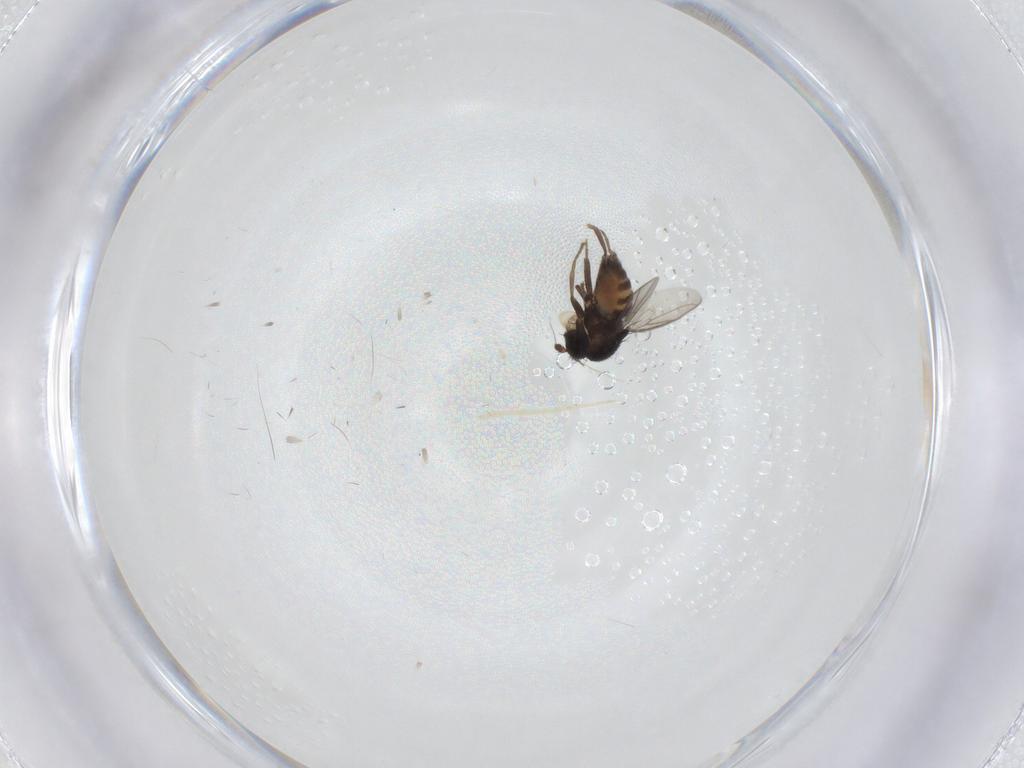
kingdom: Animalia
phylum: Arthropoda
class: Insecta
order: Diptera
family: Sphaeroceridae
